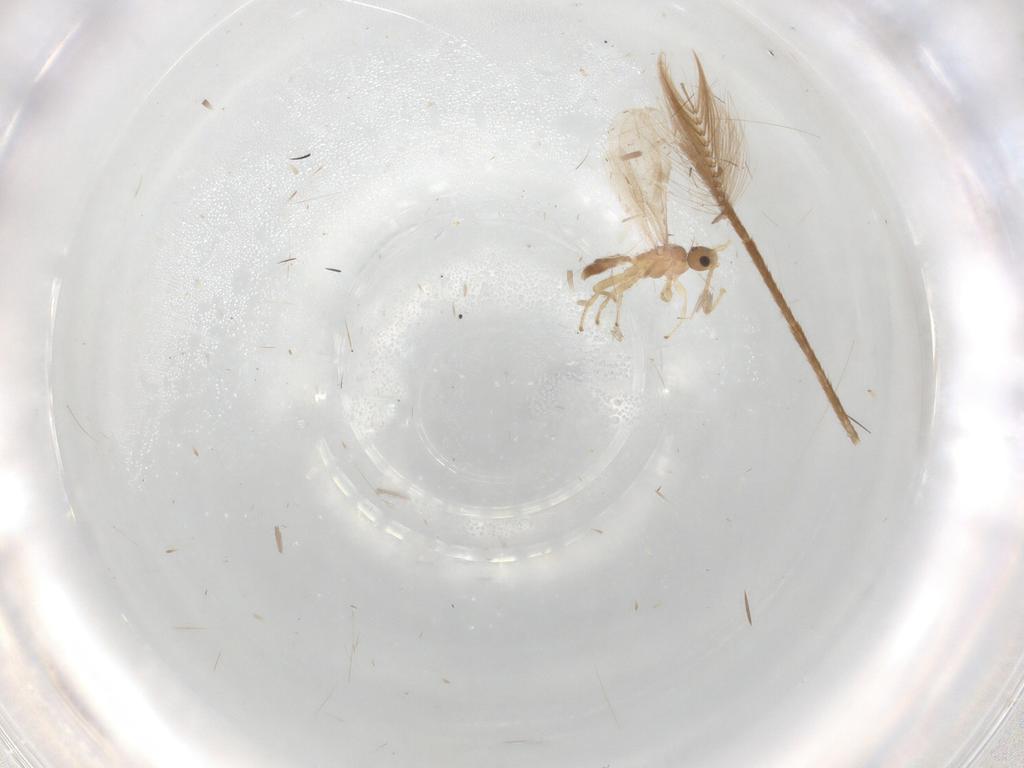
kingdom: Animalia
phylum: Arthropoda
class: Insecta
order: Hymenoptera
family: Braconidae
